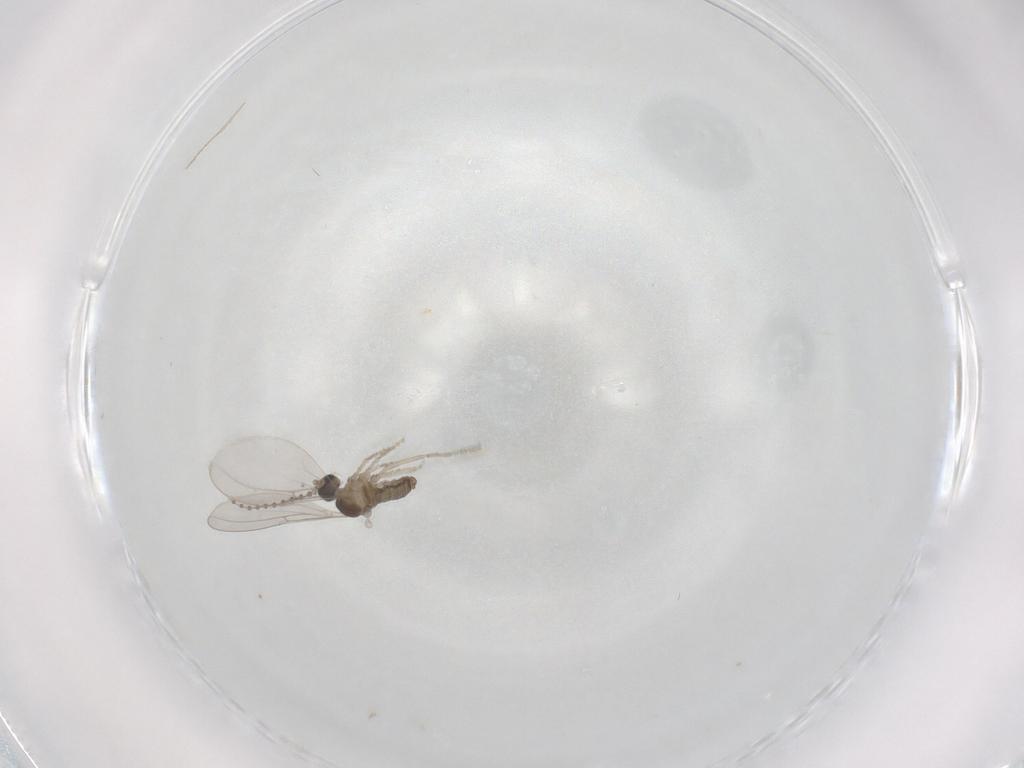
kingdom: Animalia
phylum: Arthropoda
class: Insecta
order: Diptera
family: Cecidomyiidae
